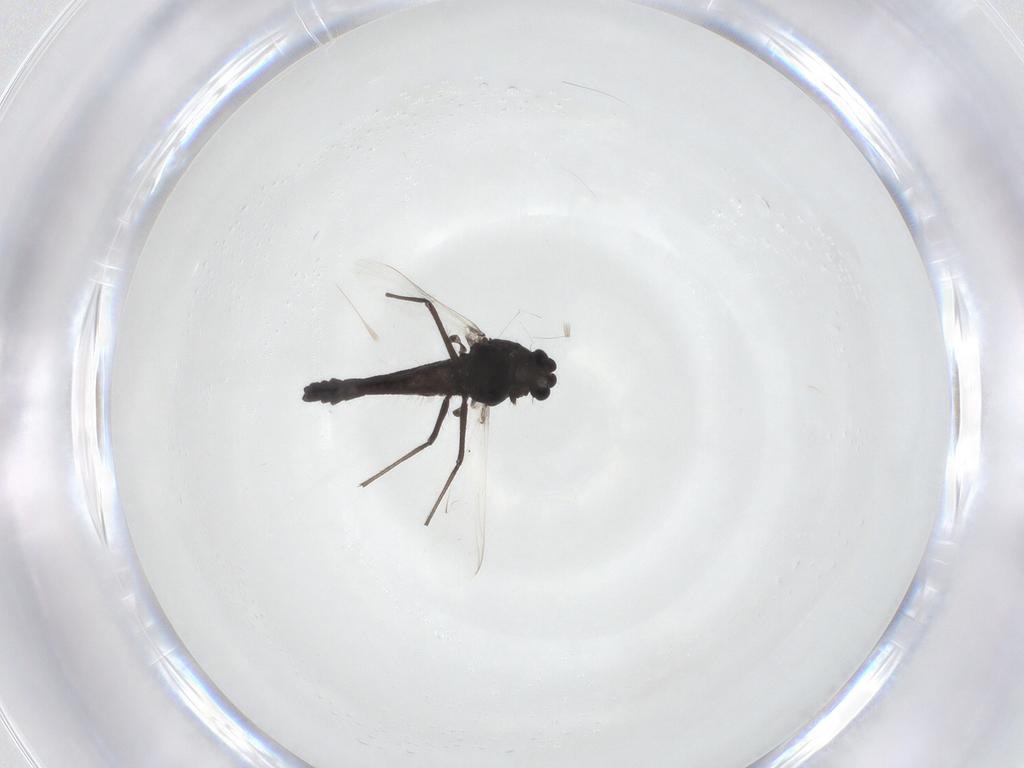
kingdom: Animalia
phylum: Arthropoda
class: Insecta
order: Diptera
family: Chironomidae
